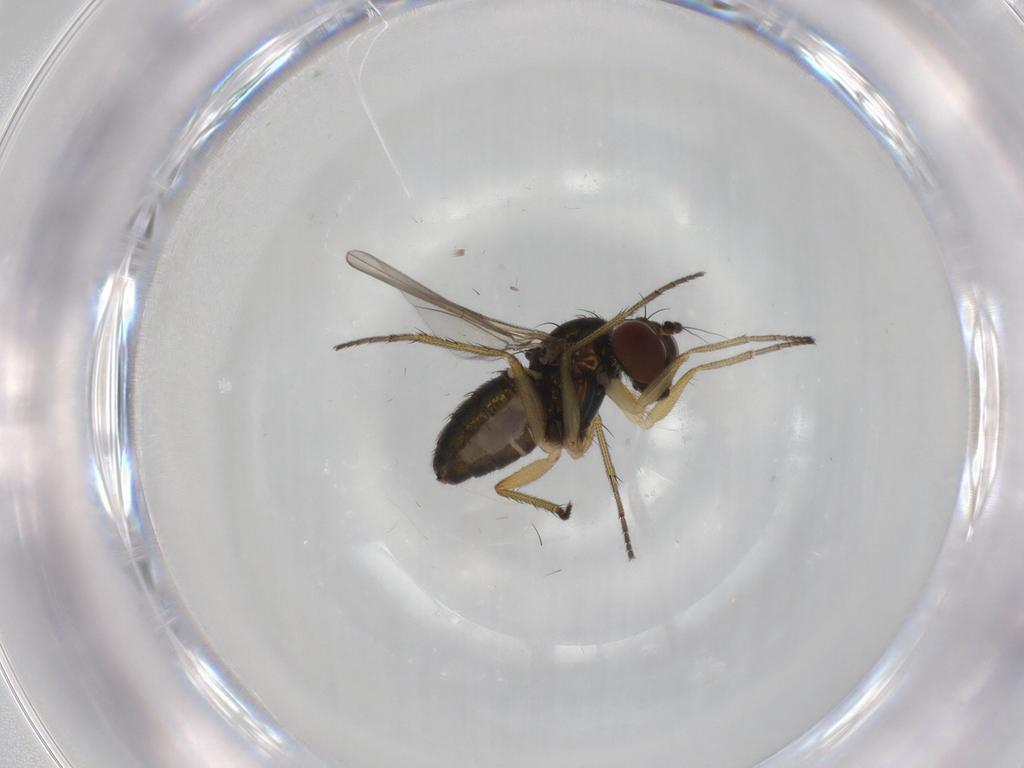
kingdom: Animalia
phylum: Arthropoda
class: Insecta
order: Diptera
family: Dolichopodidae
